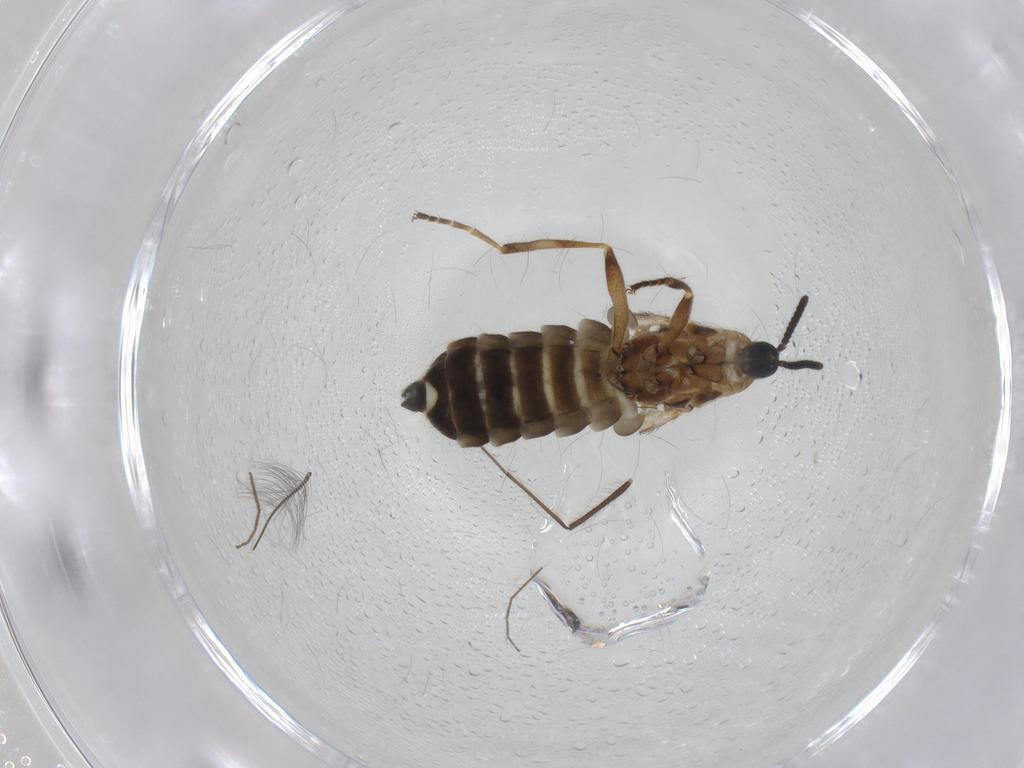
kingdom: Animalia
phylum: Arthropoda
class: Insecta
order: Diptera
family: Scatopsidae
